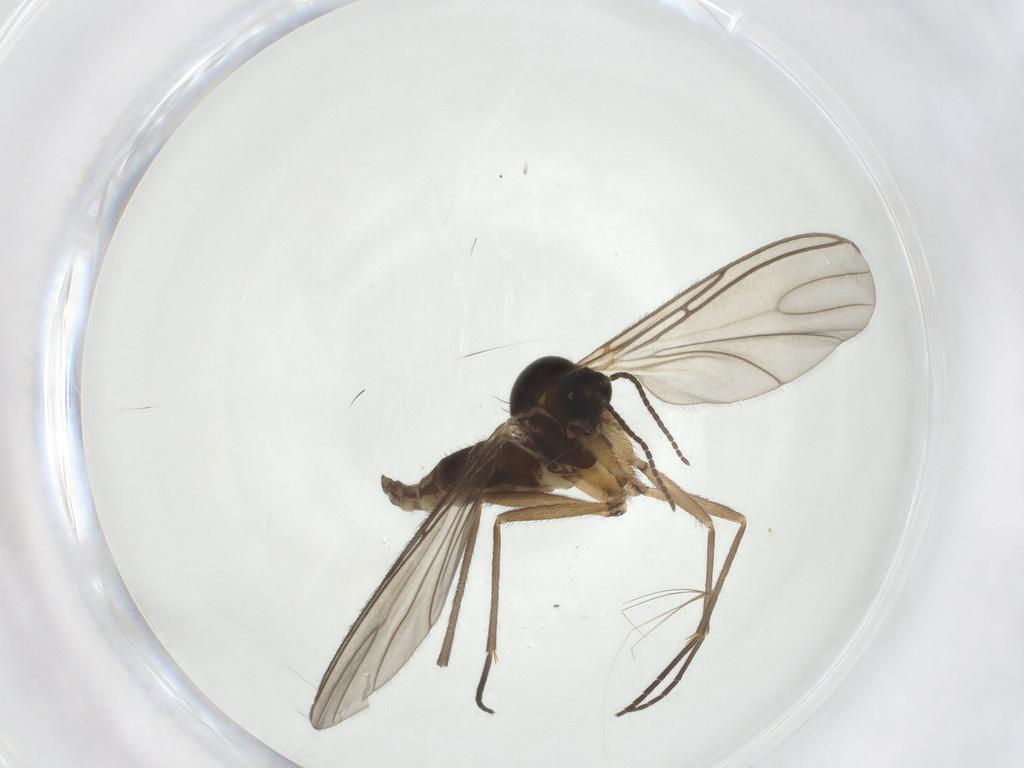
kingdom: Animalia
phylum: Arthropoda
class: Insecta
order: Diptera
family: Sciaridae
